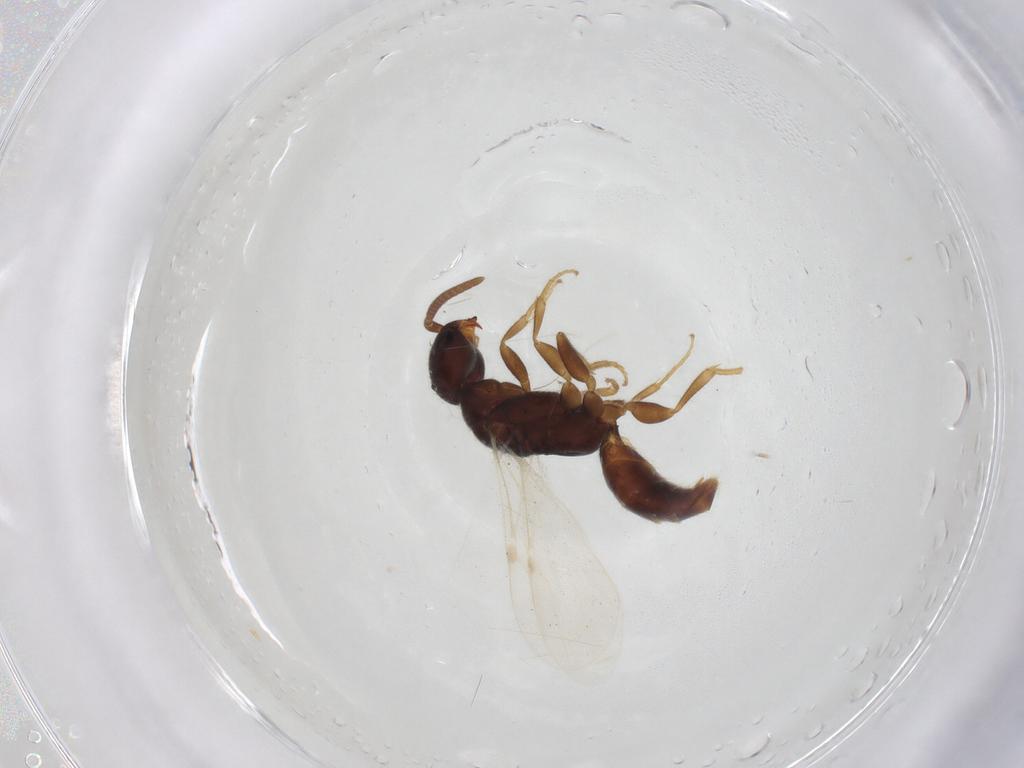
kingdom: Animalia
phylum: Arthropoda
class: Insecta
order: Hymenoptera
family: Bethylidae
